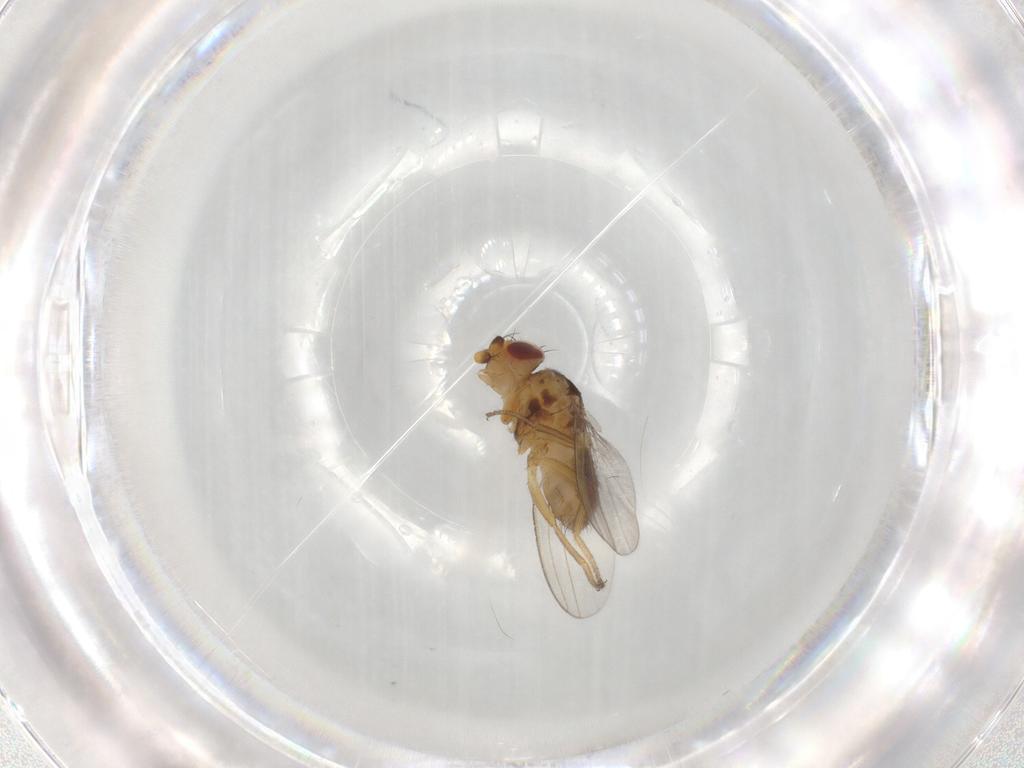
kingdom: Animalia
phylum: Arthropoda
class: Insecta
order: Diptera
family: Milichiidae
